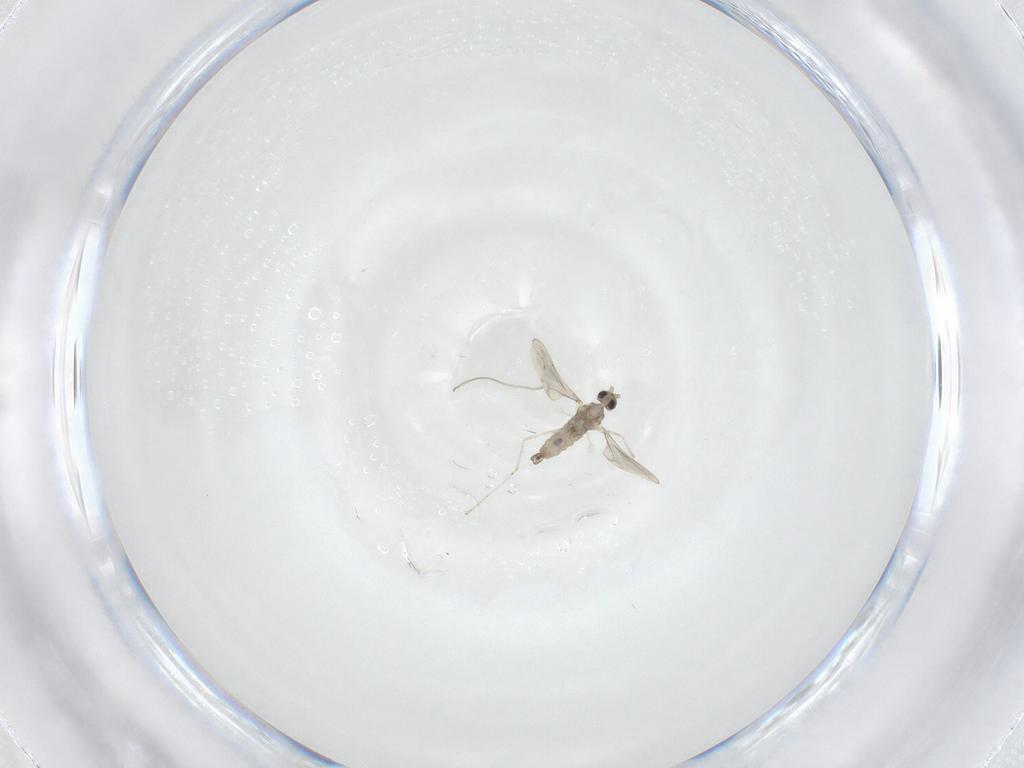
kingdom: Animalia
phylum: Arthropoda
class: Insecta
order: Diptera
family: Cecidomyiidae
